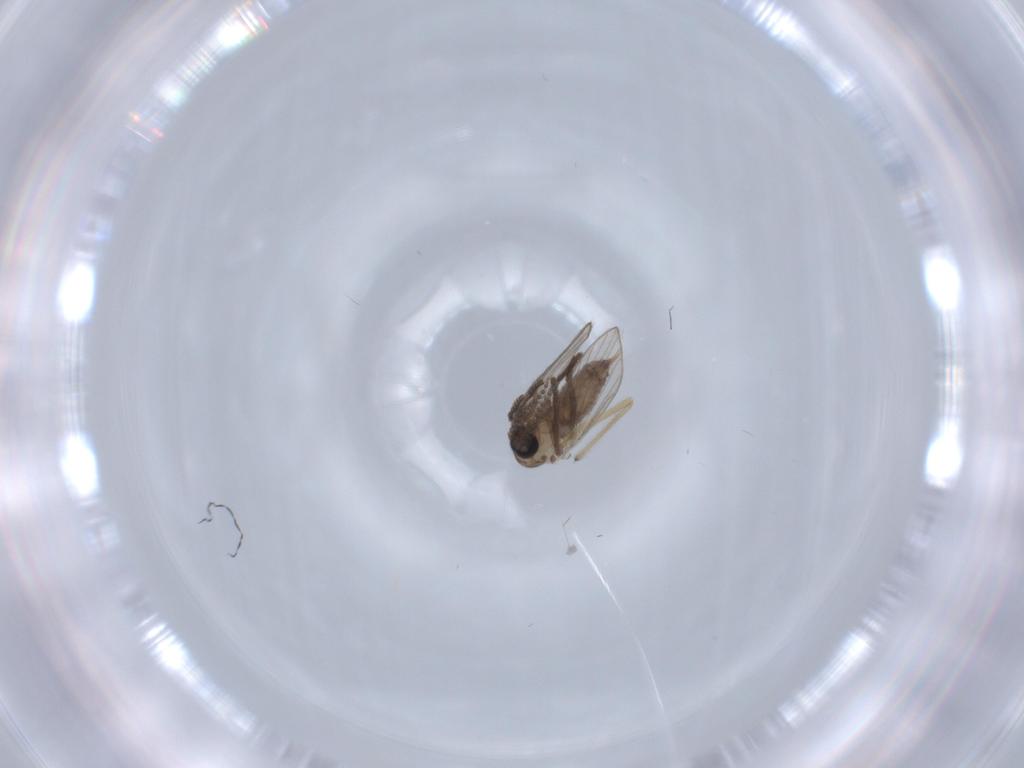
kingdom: Animalia
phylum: Arthropoda
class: Insecta
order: Diptera
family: Psychodidae
